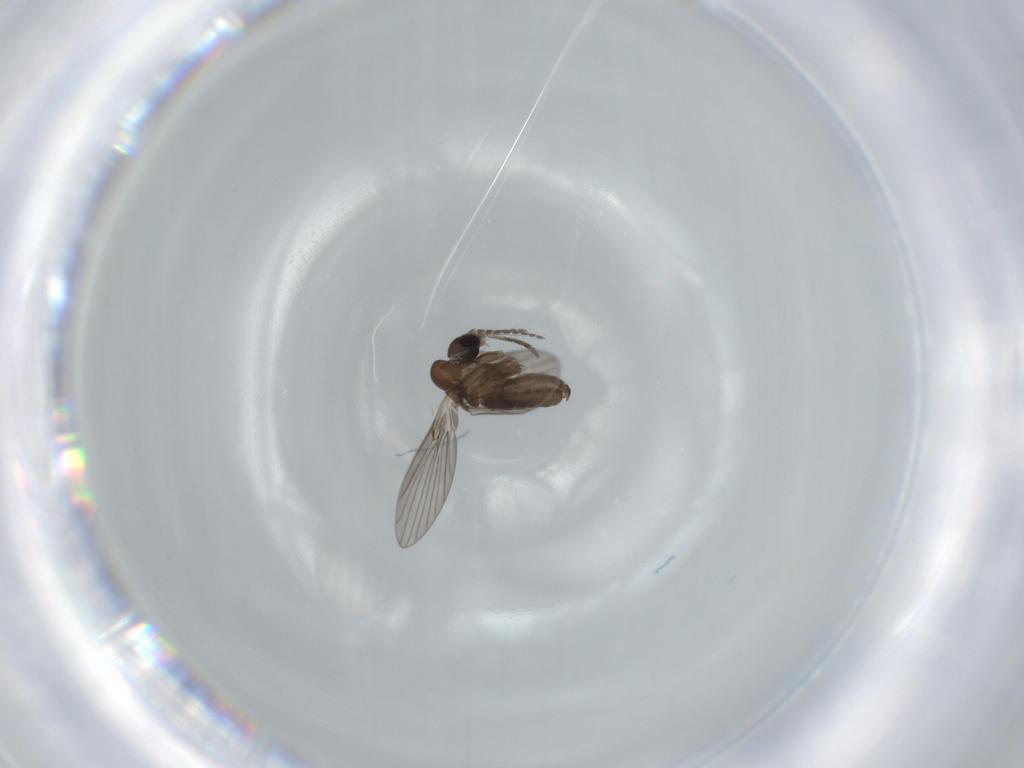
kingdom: Animalia
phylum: Arthropoda
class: Insecta
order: Diptera
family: Psychodidae
